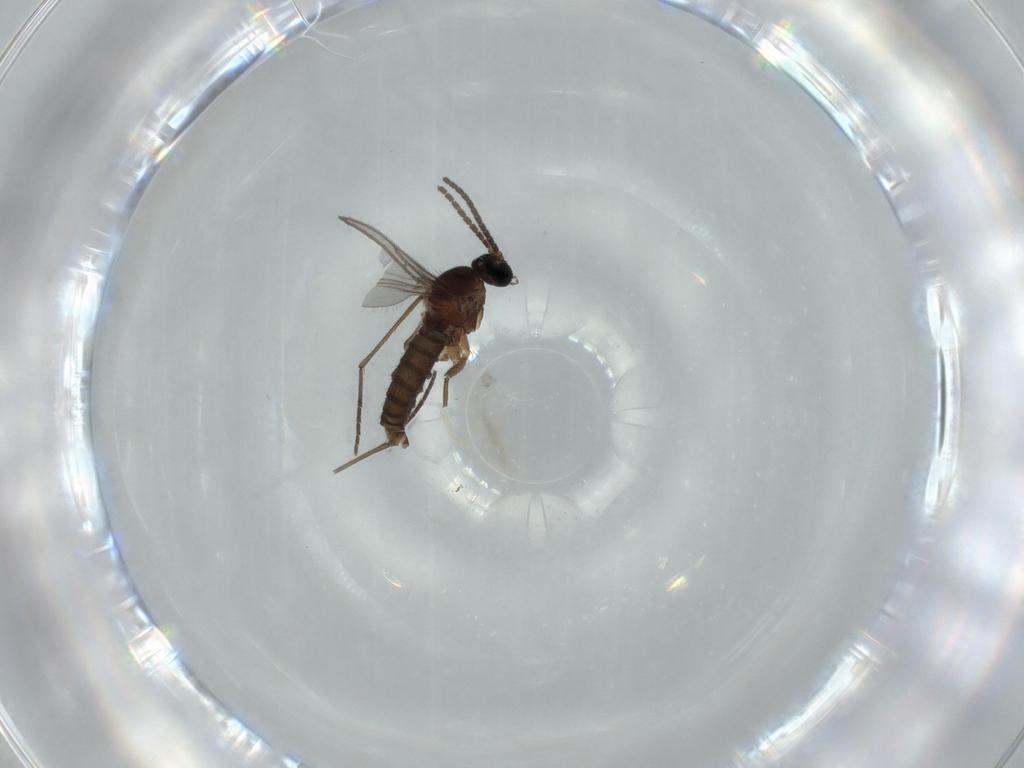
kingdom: Animalia
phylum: Arthropoda
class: Insecta
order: Diptera
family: Sciaridae
